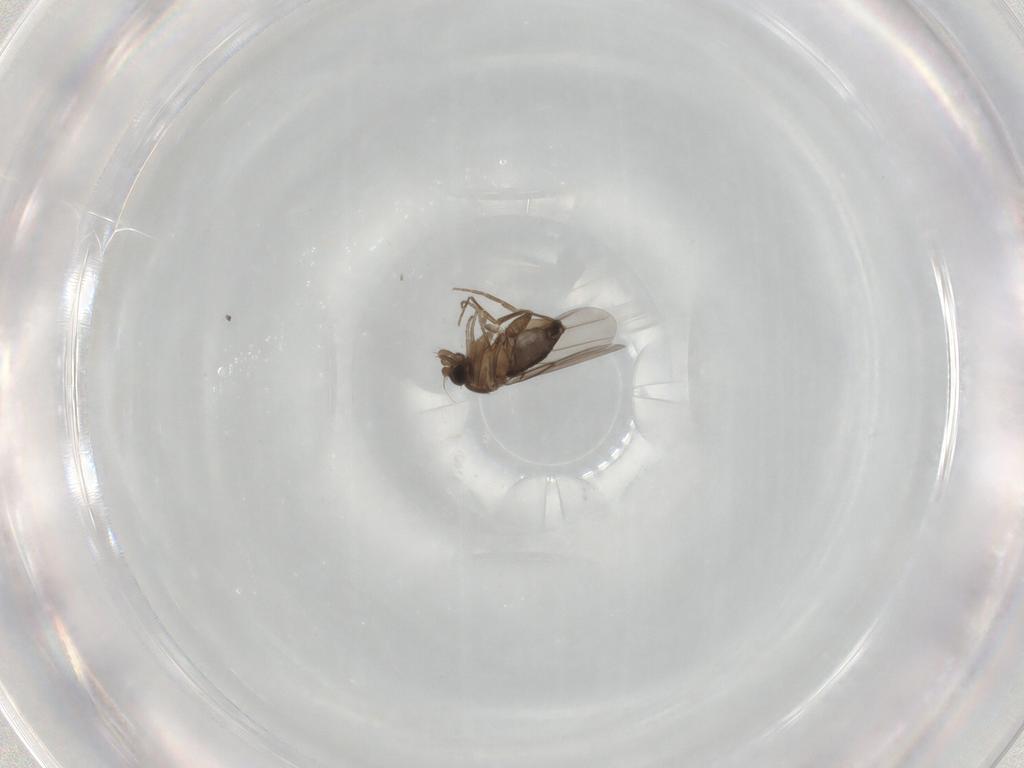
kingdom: Animalia
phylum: Arthropoda
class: Insecta
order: Diptera
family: Phoridae
